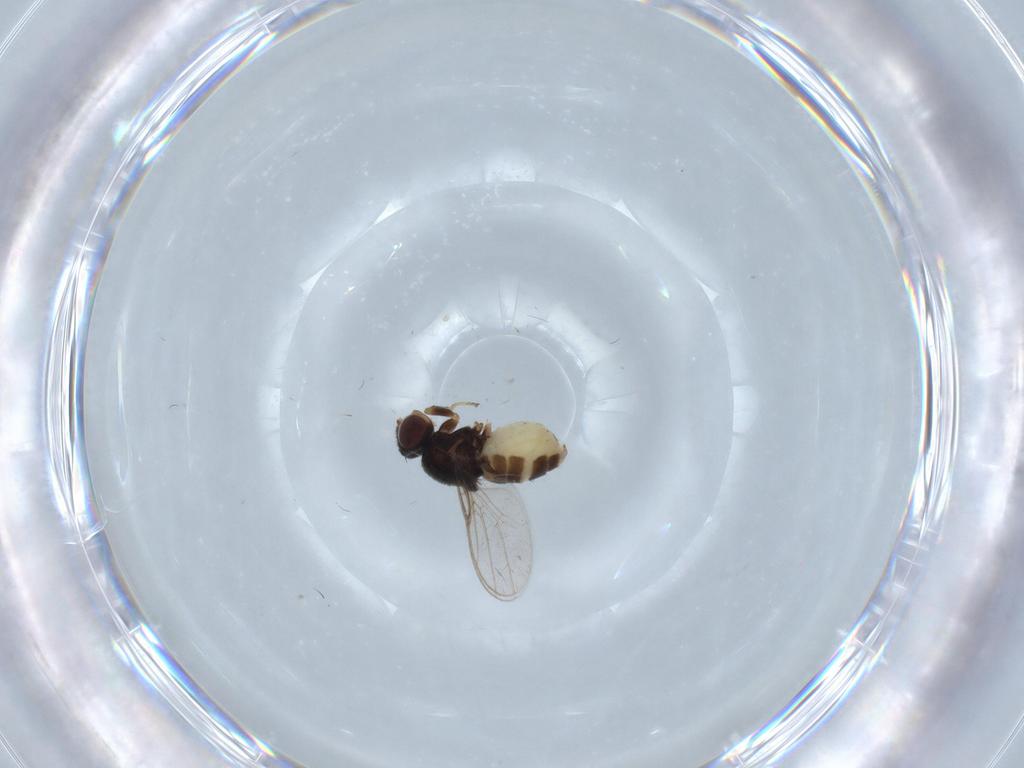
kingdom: Animalia
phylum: Arthropoda
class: Insecta
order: Diptera
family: Chloropidae
